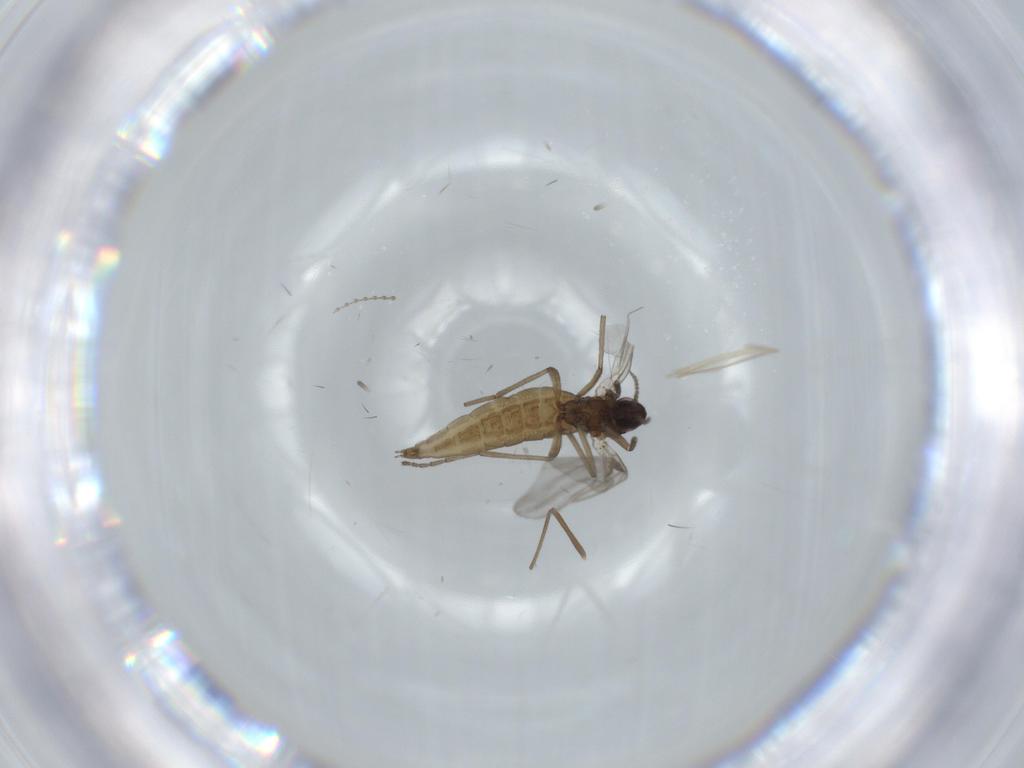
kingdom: Animalia
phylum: Arthropoda
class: Insecta
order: Diptera
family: Chironomidae
